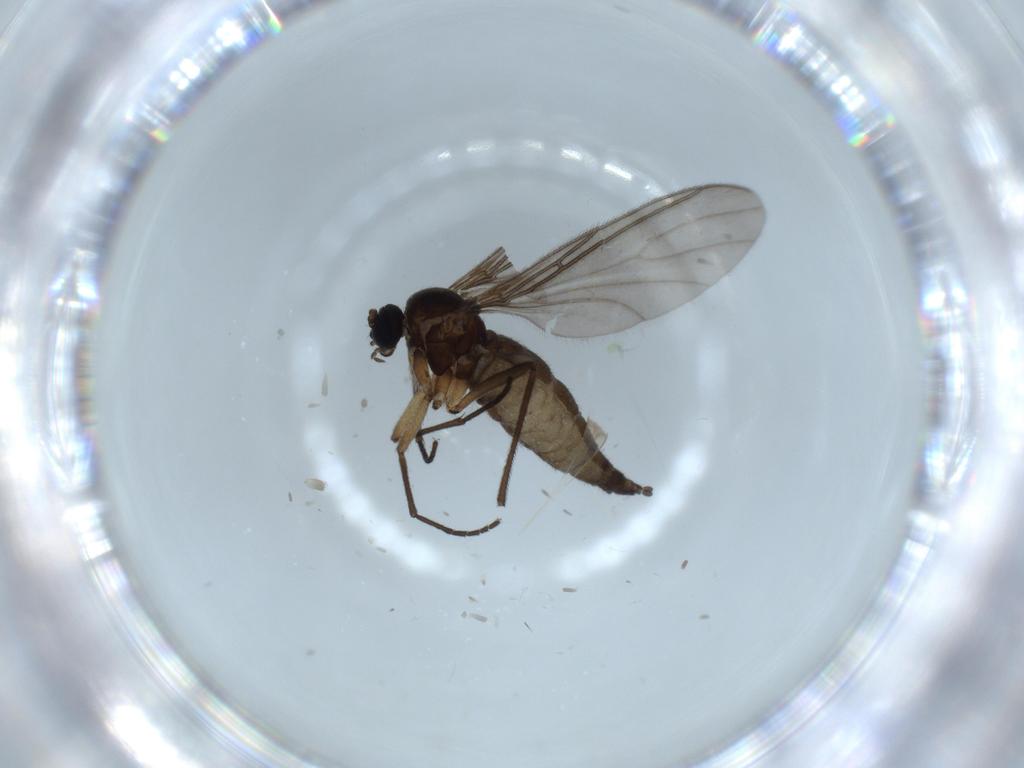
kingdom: Animalia
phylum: Arthropoda
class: Insecta
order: Diptera
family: Sciaridae
